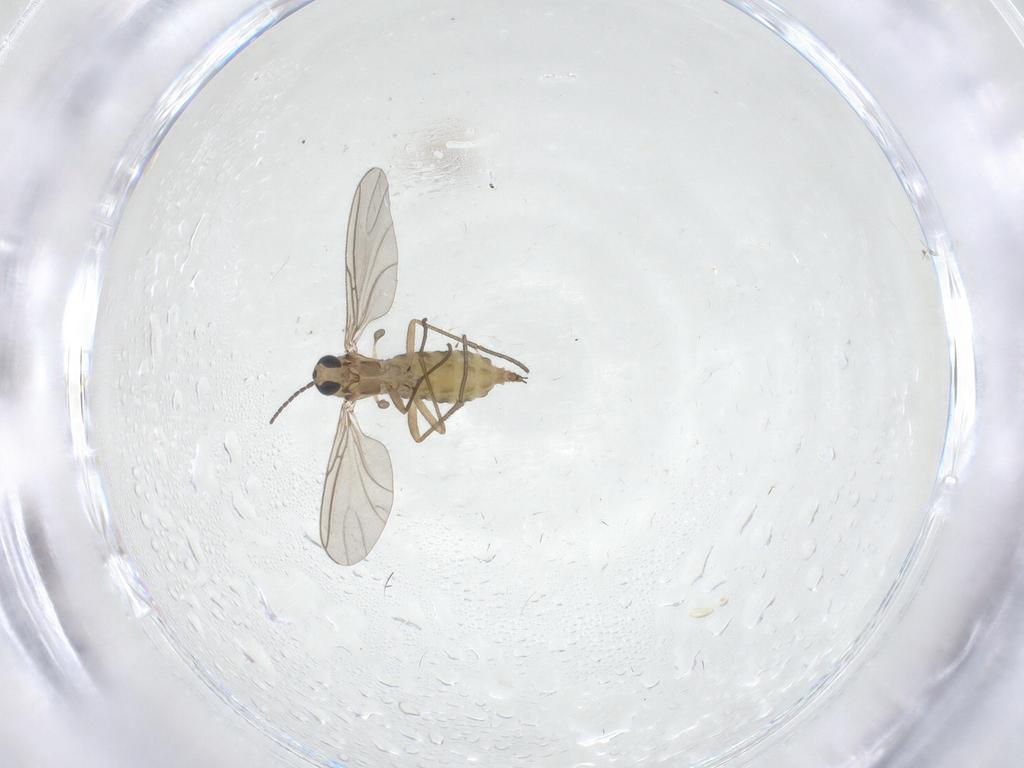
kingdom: Animalia
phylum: Arthropoda
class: Insecta
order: Diptera
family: Sciaridae
